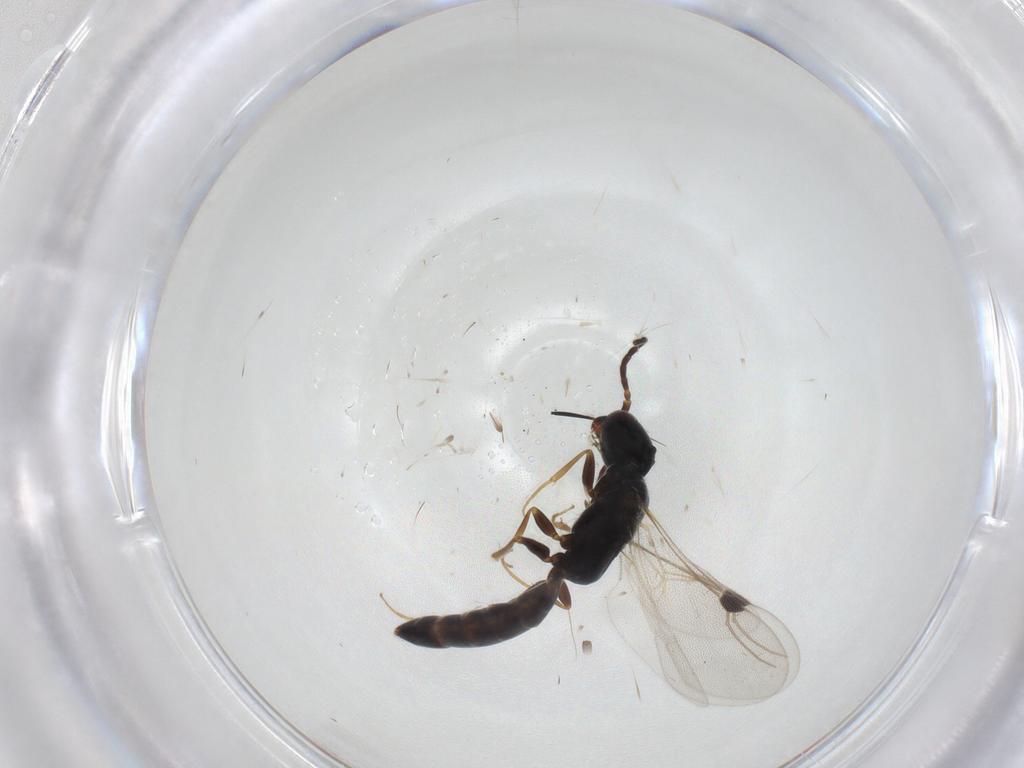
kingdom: Animalia
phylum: Arthropoda
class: Insecta
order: Hymenoptera
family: Bethylidae
